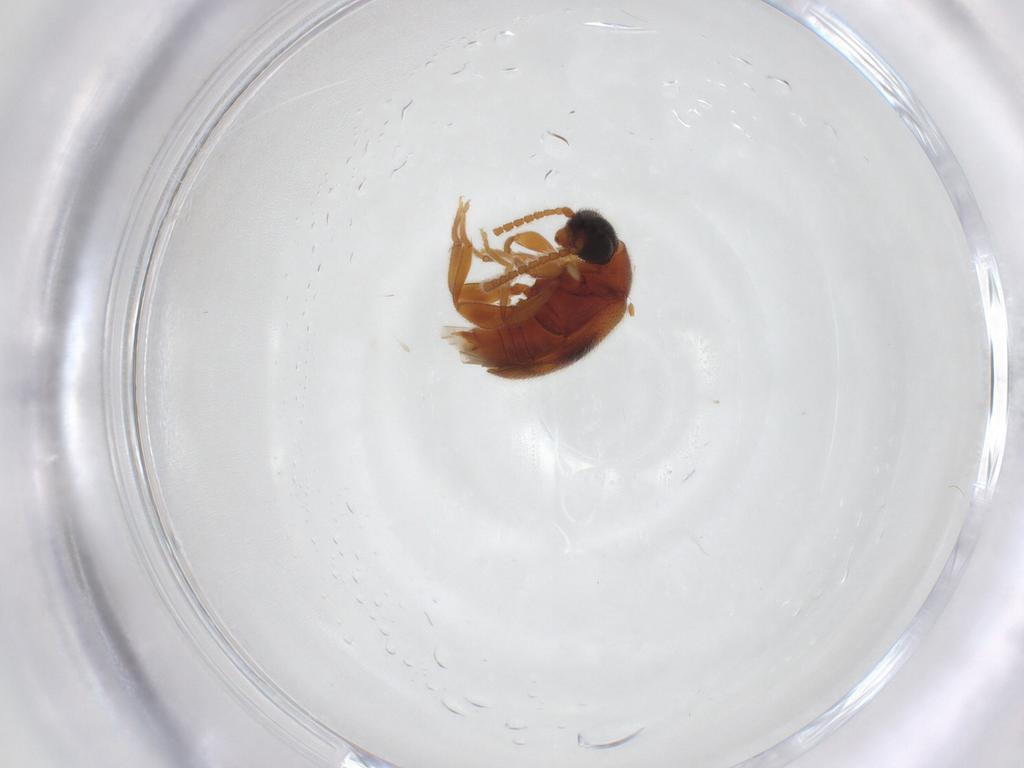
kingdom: Animalia
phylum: Arthropoda
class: Insecta
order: Coleoptera
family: Aderidae
